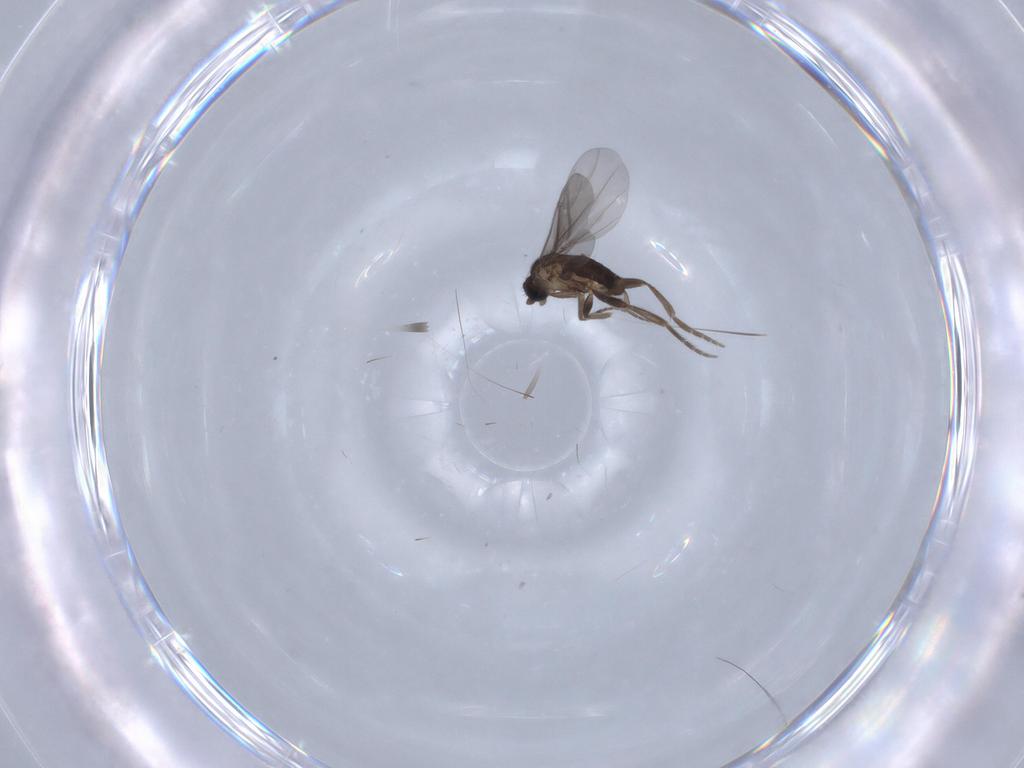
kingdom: Animalia
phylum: Arthropoda
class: Insecta
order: Diptera
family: Phoridae
